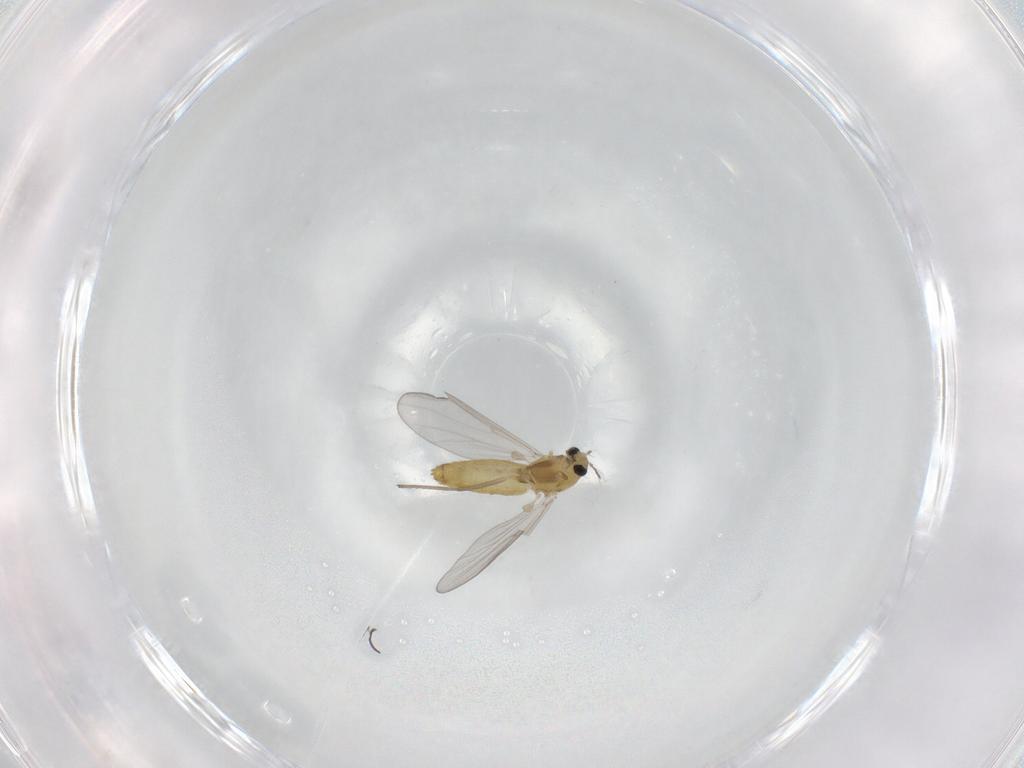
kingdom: Animalia
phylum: Arthropoda
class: Insecta
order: Diptera
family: Chironomidae
